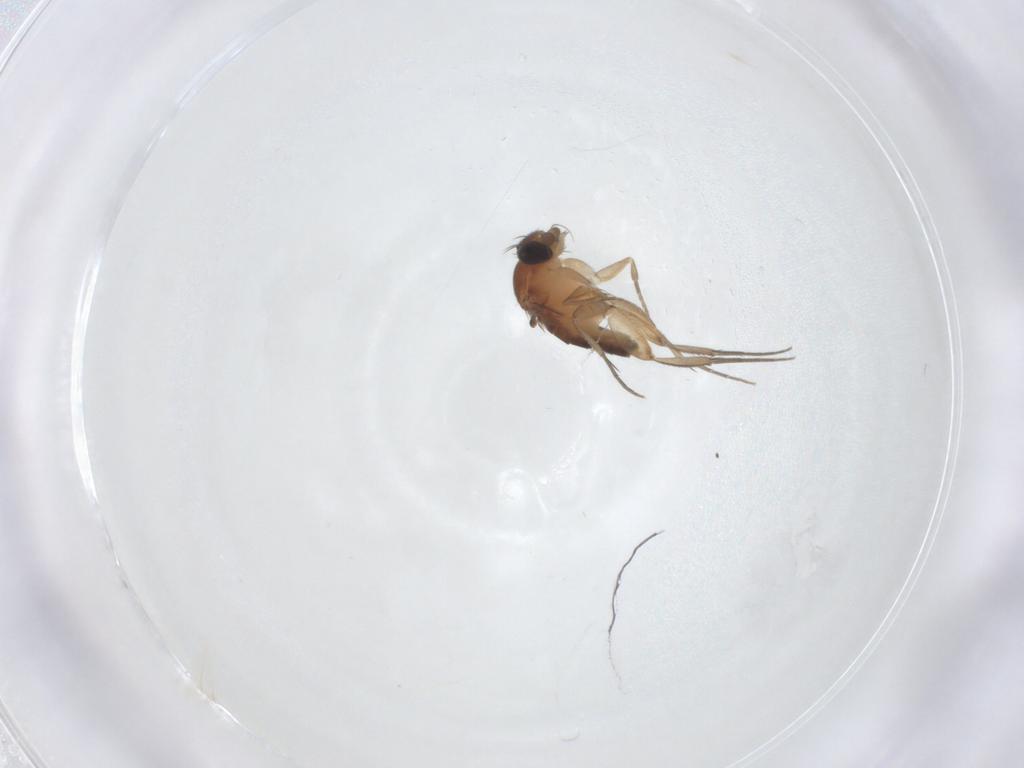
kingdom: Animalia
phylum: Arthropoda
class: Insecta
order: Diptera
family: Phoridae
